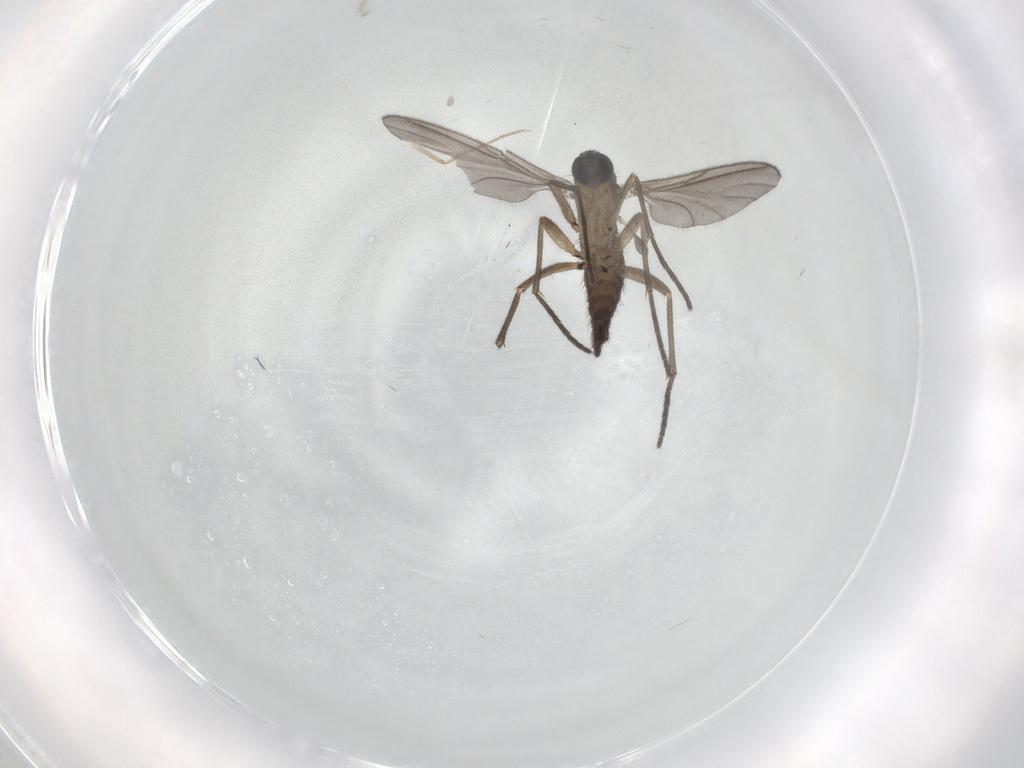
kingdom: Animalia
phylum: Arthropoda
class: Insecta
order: Diptera
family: Sciaridae
